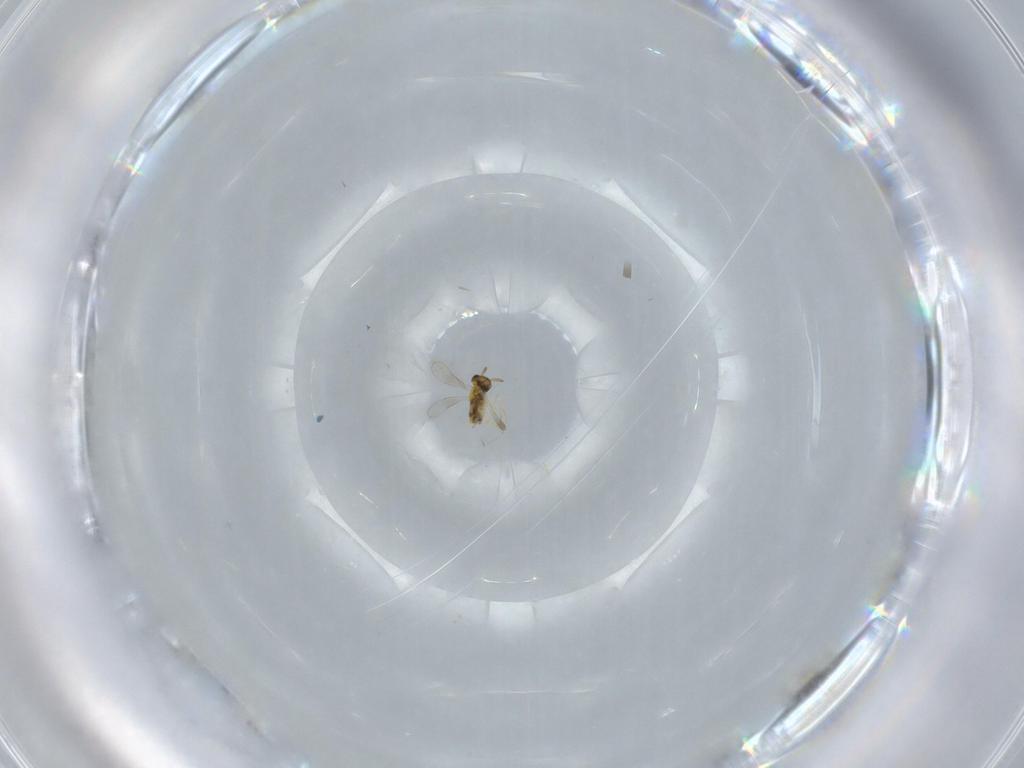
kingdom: Animalia
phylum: Arthropoda
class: Insecta
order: Hymenoptera
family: Aphelinidae
